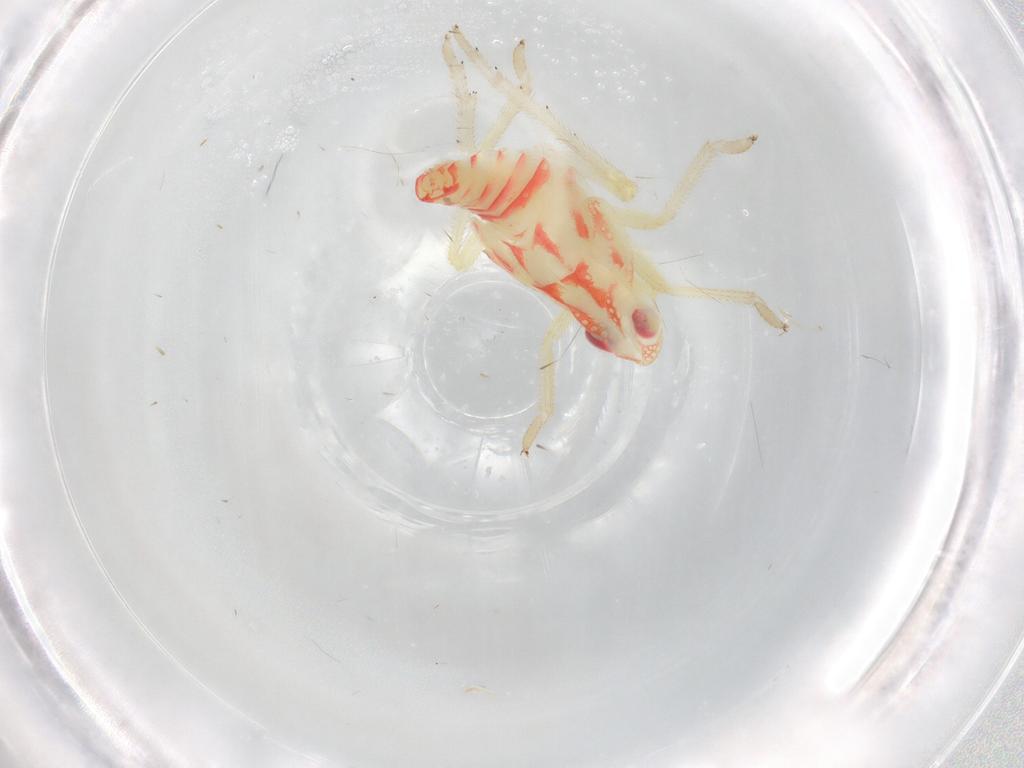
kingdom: Animalia
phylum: Arthropoda
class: Insecta
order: Hemiptera
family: Tropiduchidae
